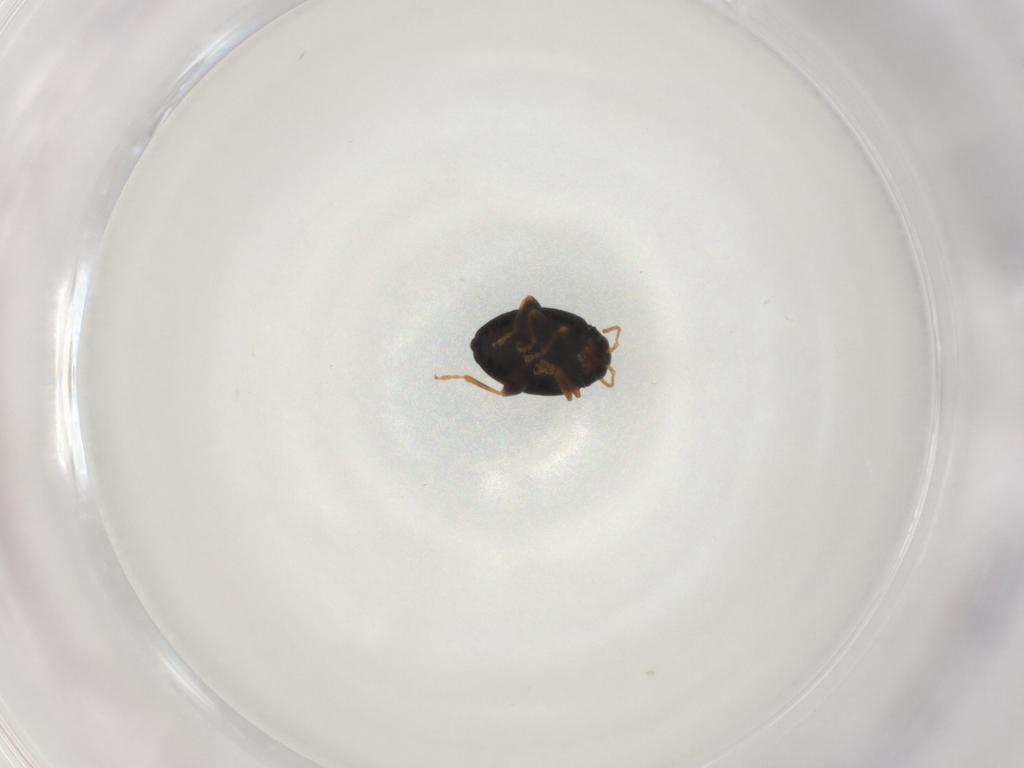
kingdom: Animalia
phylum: Arthropoda
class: Insecta
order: Coleoptera
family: Chrysomelidae
